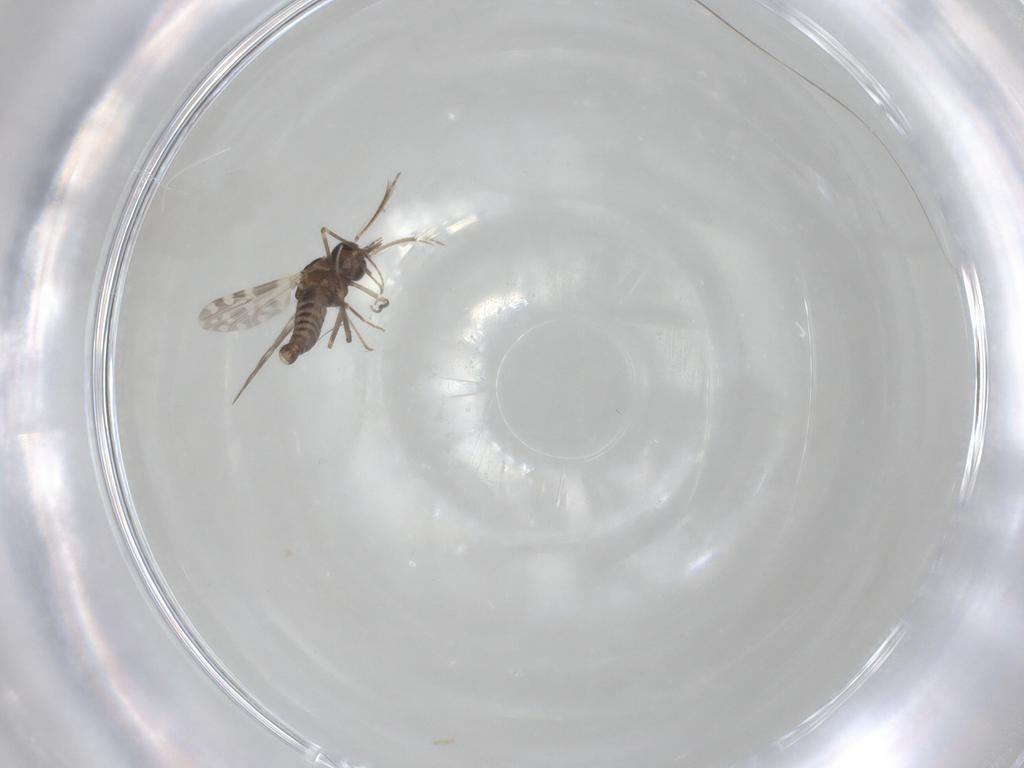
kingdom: Animalia
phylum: Arthropoda
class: Insecta
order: Diptera
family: Ceratopogonidae
